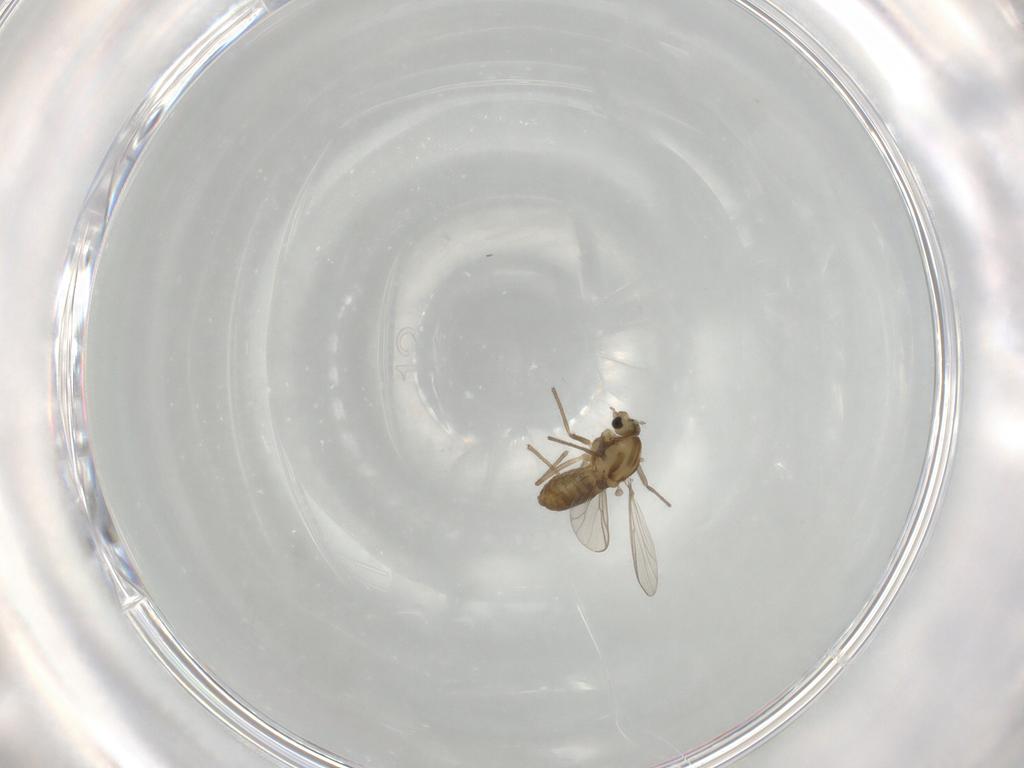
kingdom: Animalia
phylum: Arthropoda
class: Insecta
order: Diptera
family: Chironomidae
